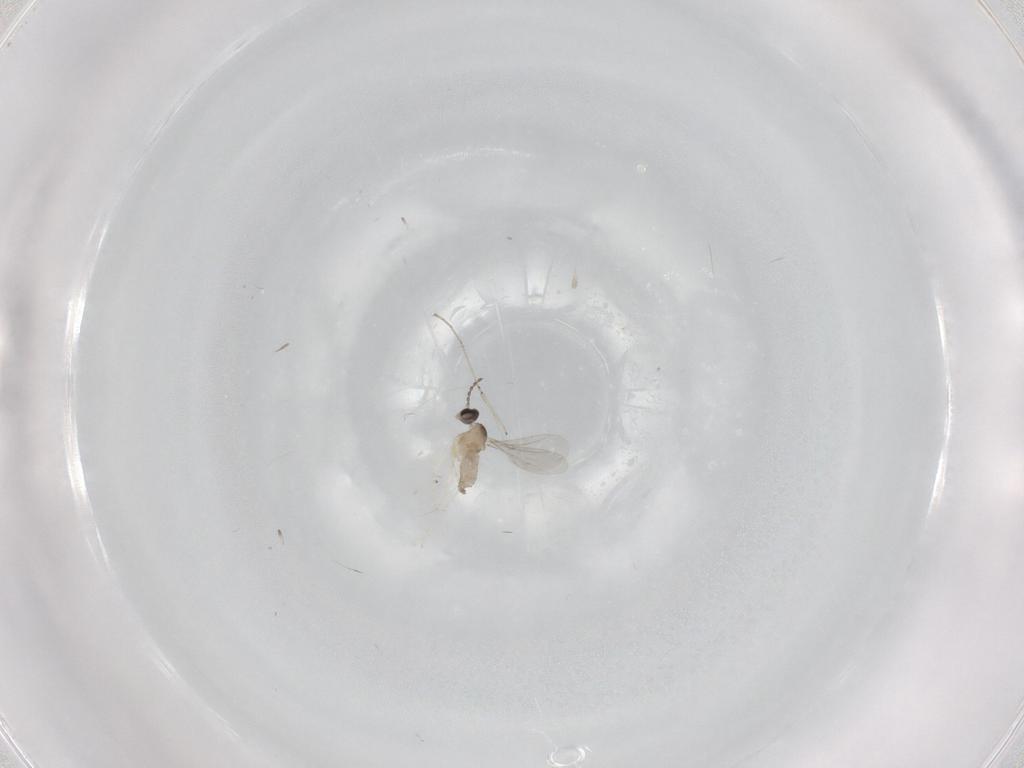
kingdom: Animalia
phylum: Arthropoda
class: Insecta
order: Diptera
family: Cecidomyiidae
